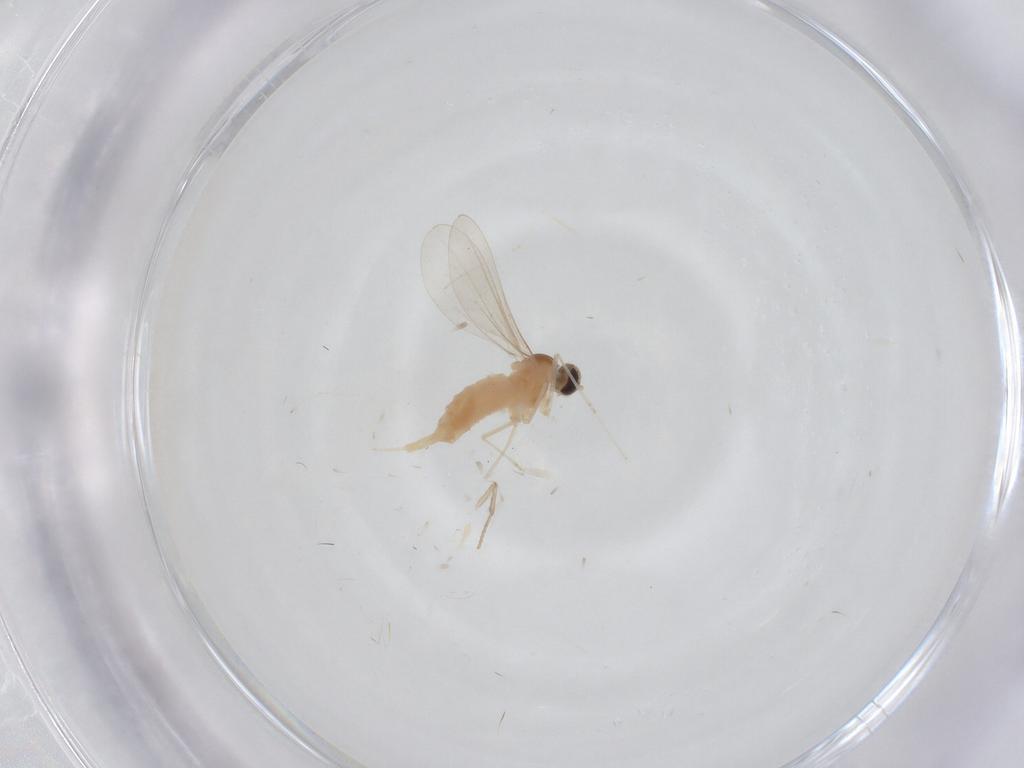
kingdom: Animalia
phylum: Arthropoda
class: Insecta
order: Diptera
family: Cecidomyiidae
